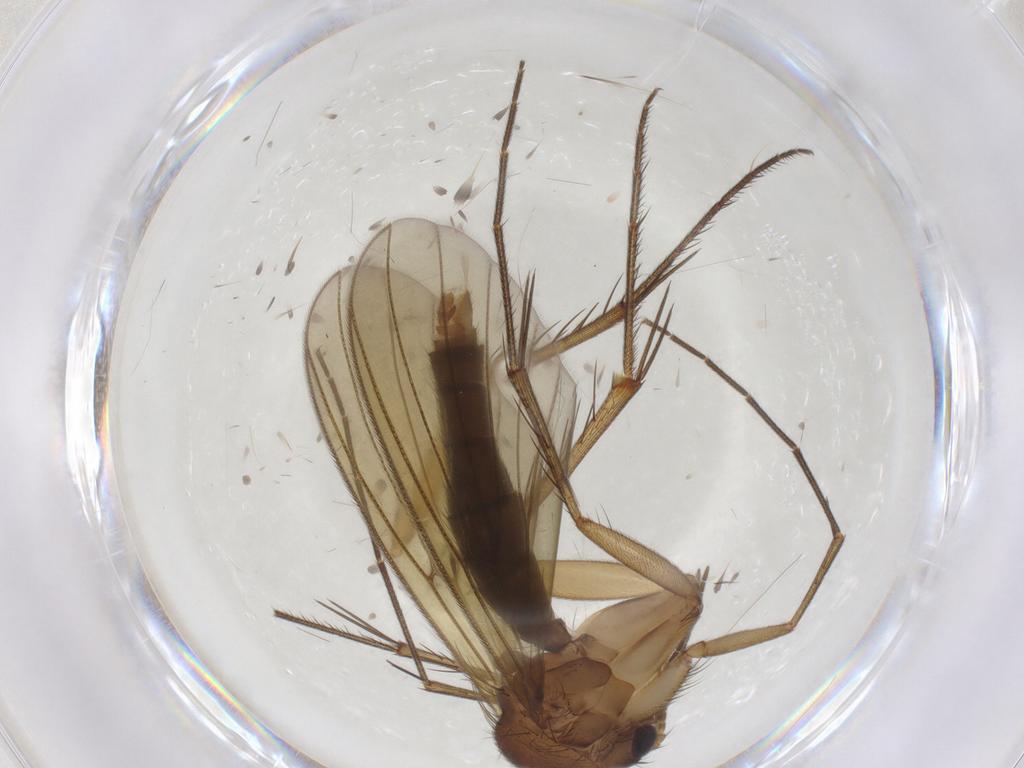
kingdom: Animalia
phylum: Arthropoda
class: Insecta
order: Diptera
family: Mycetophilidae
